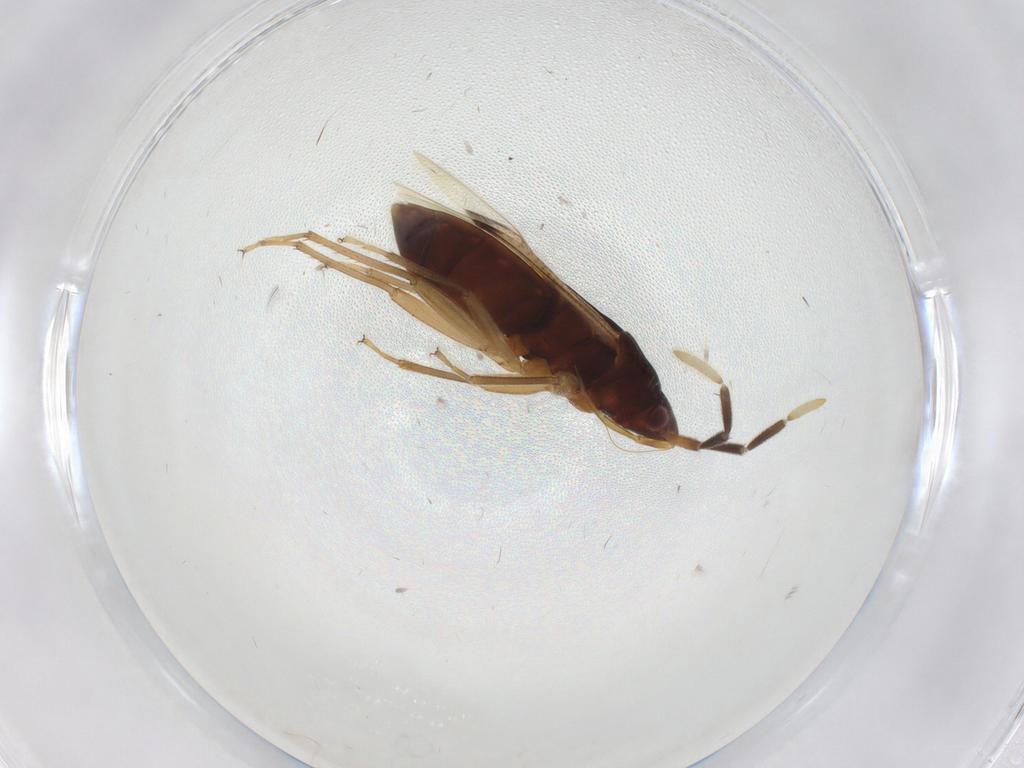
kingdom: Animalia
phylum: Arthropoda
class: Insecta
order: Hemiptera
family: Rhyparochromidae
